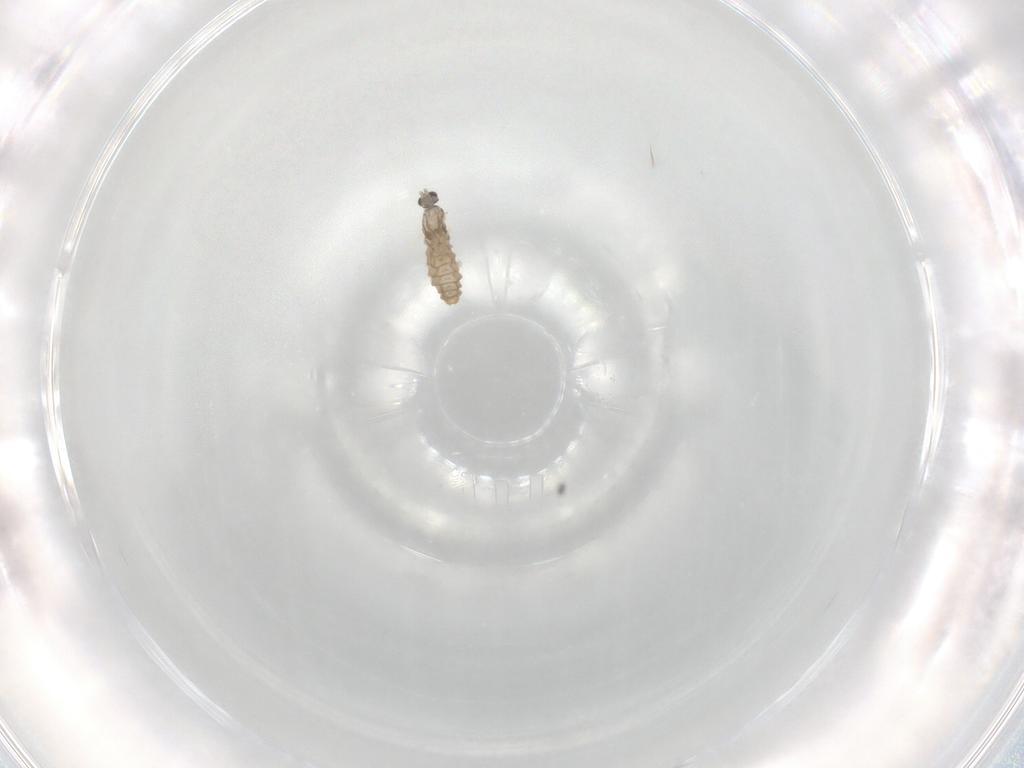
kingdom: Animalia
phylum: Arthropoda
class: Insecta
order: Diptera
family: Cecidomyiidae
